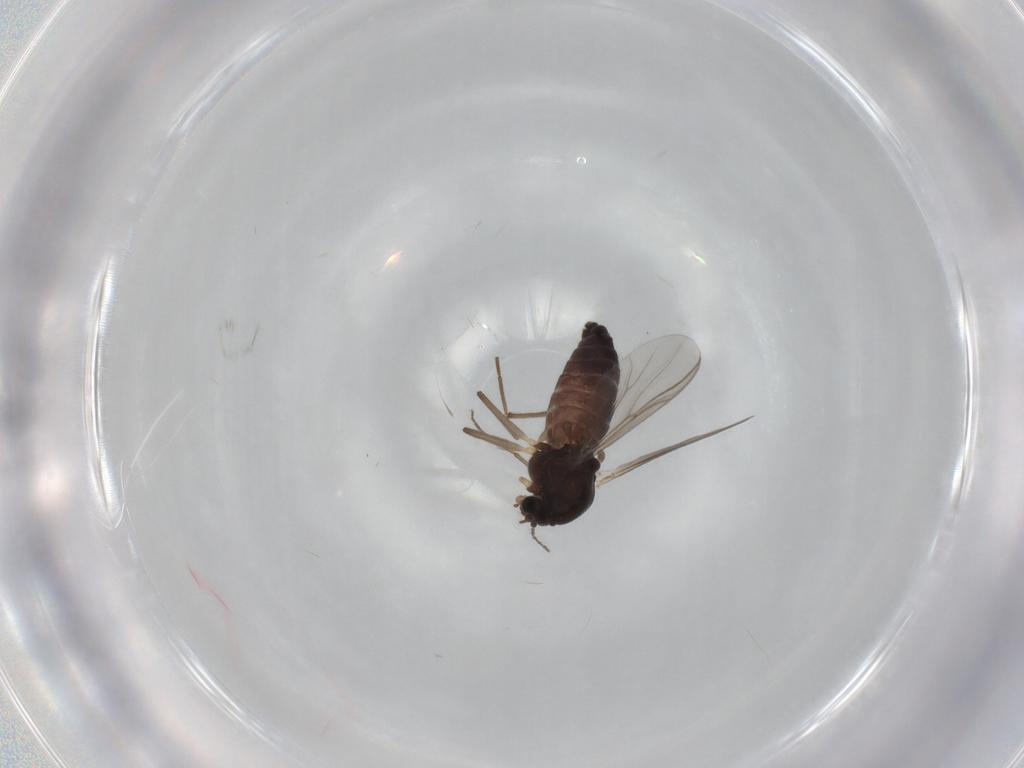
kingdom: Animalia
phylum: Arthropoda
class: Insecta
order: Diptera
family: Chironomidae
